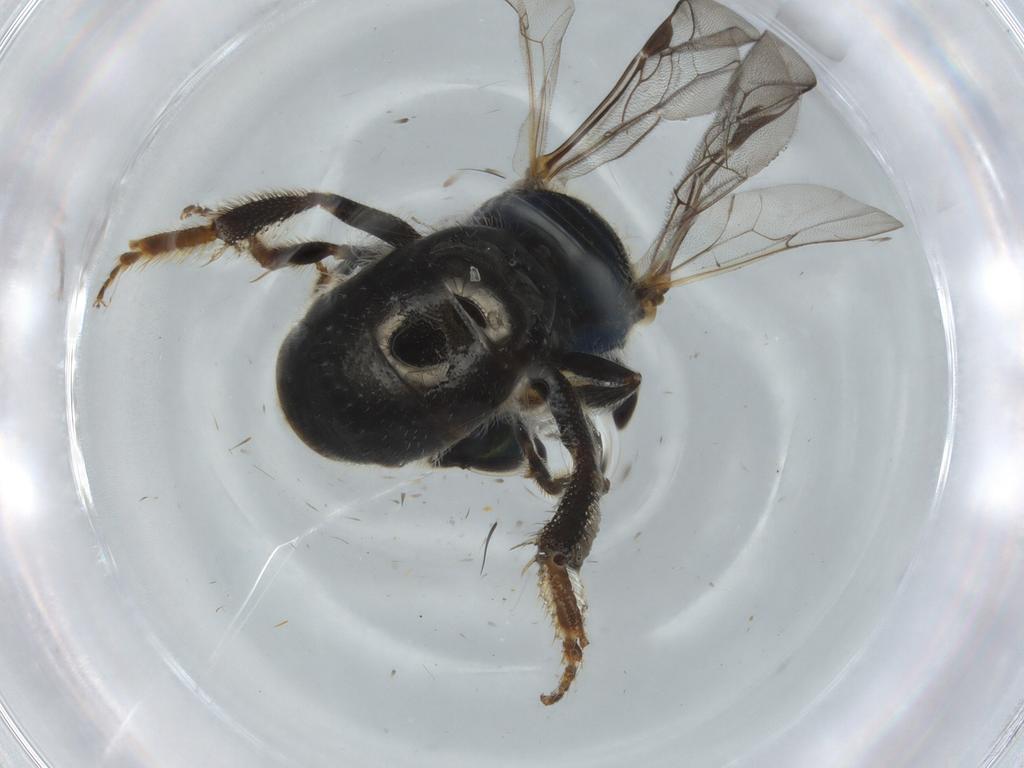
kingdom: Animalia
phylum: Arthropoda
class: Insecta
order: Hymenoptera
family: Halictidae
